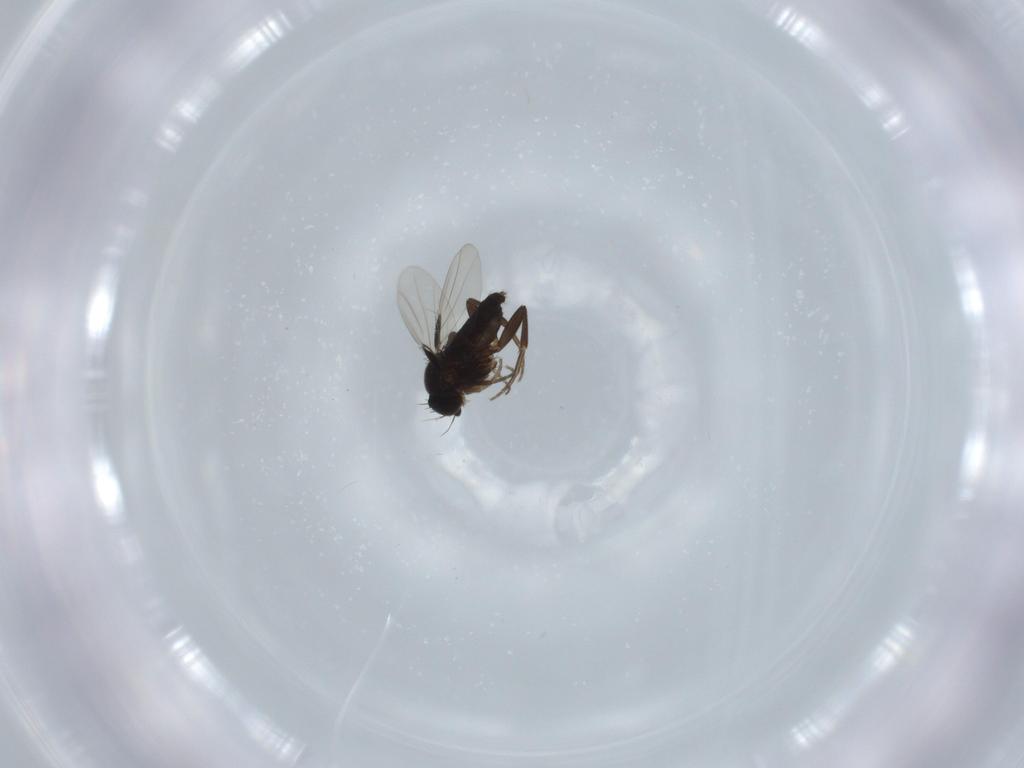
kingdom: Animalia
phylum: Arthropoda
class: Insecta
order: Diptera
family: Phoridae
